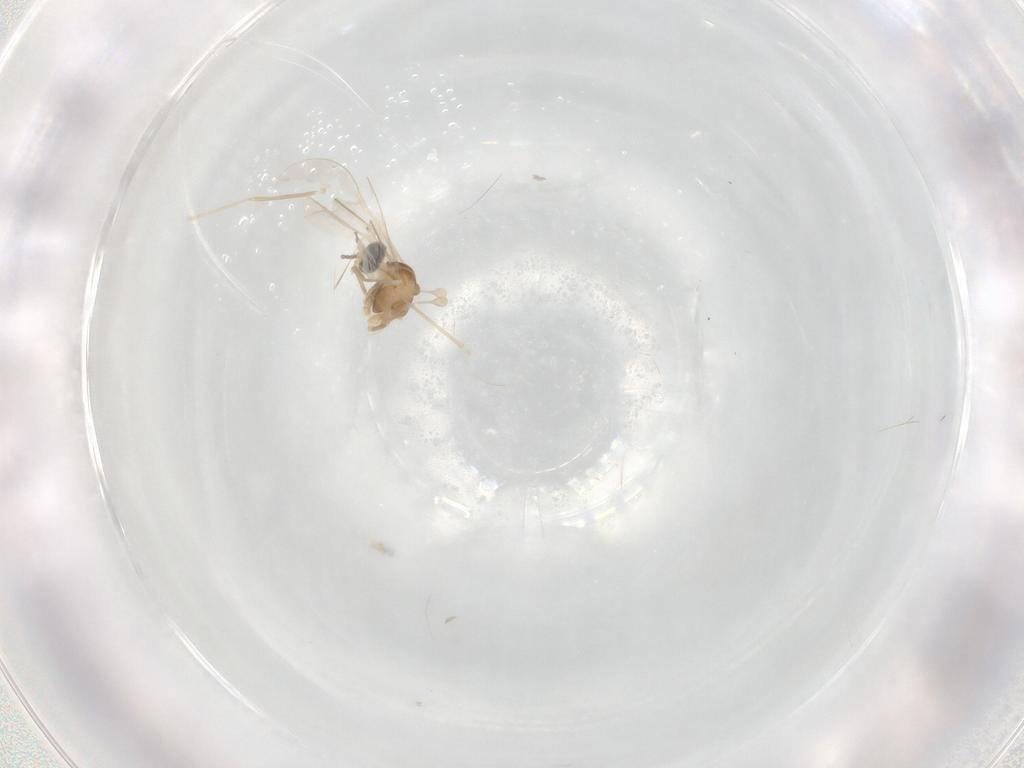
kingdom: Animalia
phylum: Arthropoda
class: Insecta
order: Diptera
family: Cecidomyiidae
